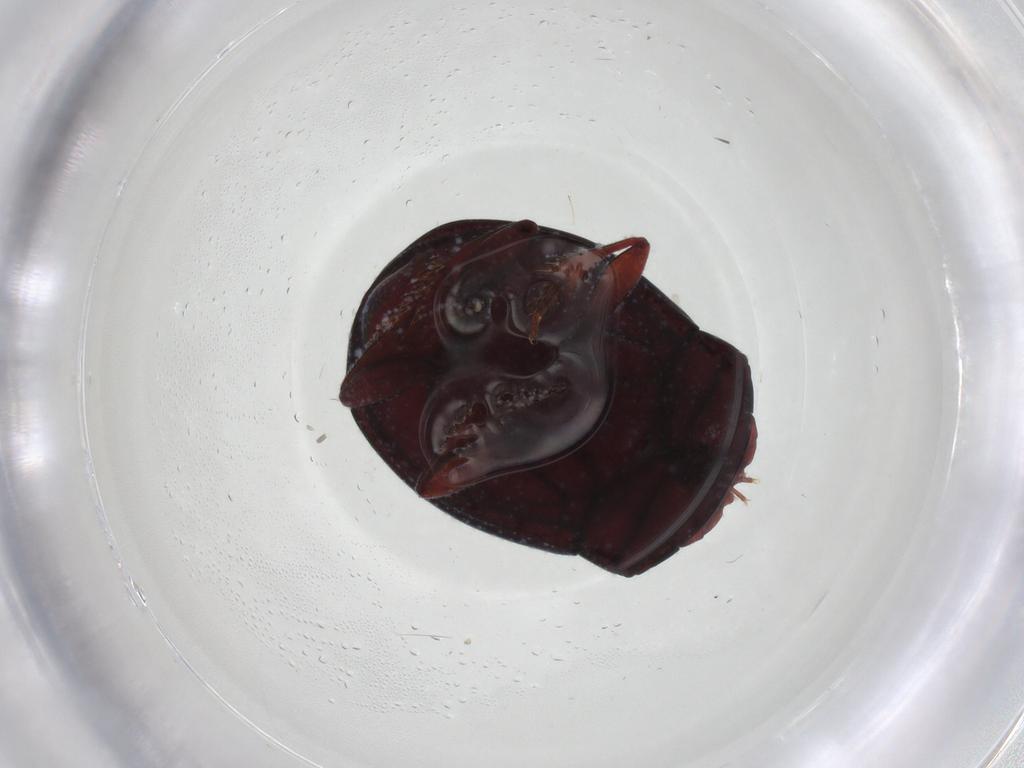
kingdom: Animalia
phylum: Arthropoda
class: Insecta
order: Coleoptera
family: Scarabaeidae
